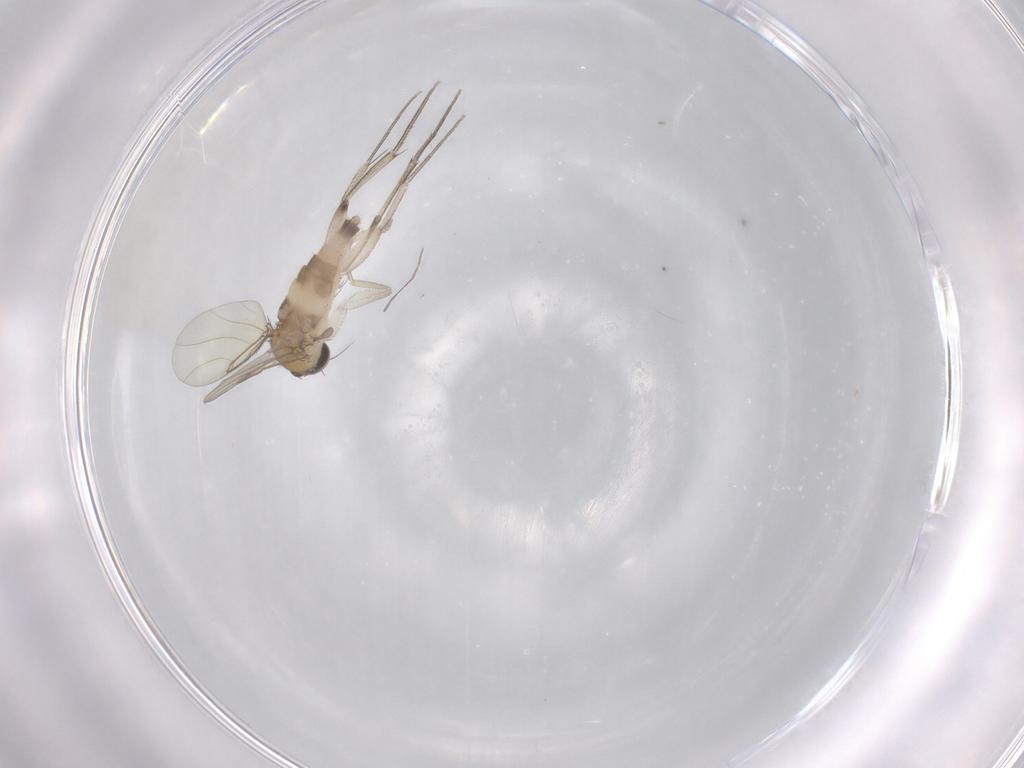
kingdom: Animalia
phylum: Arthropoda
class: Insecta
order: Diptera
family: Phoridae
